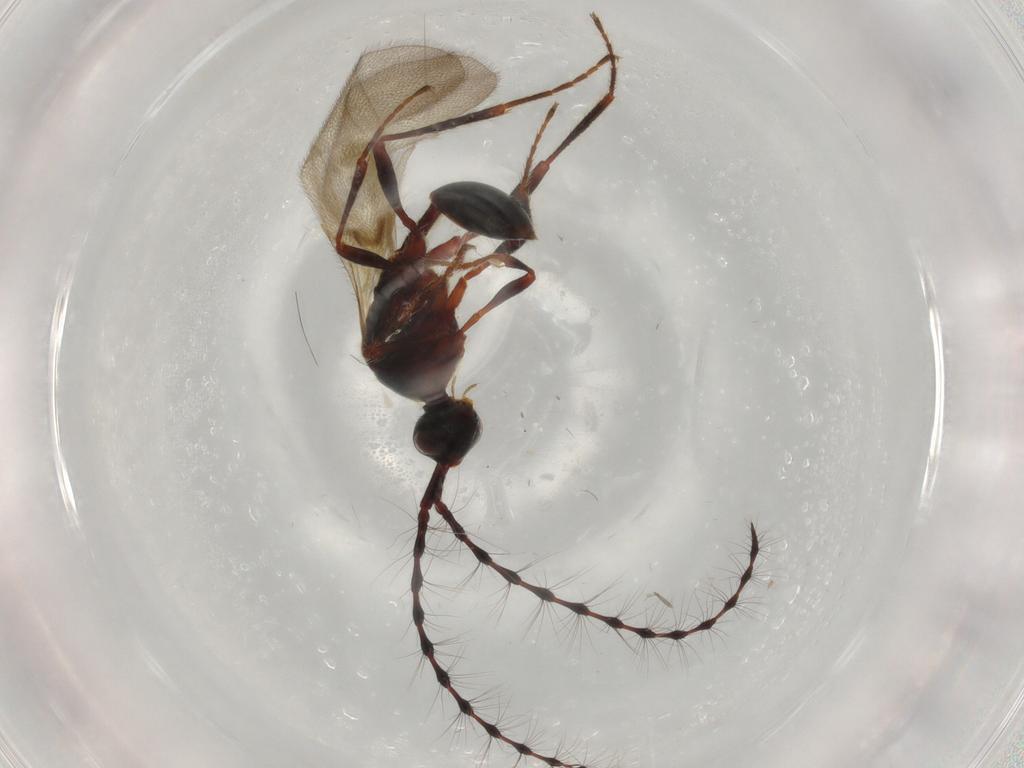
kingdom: Animalia
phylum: Arthropoda
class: Insecta
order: Hymenoptera
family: Diapriidae
